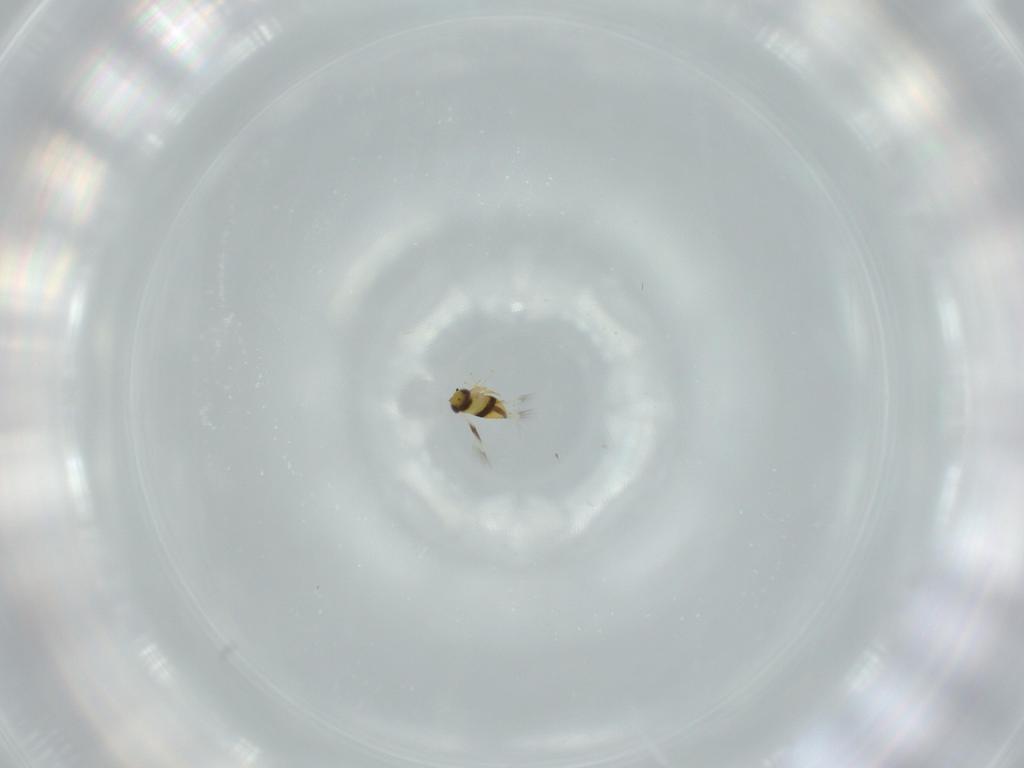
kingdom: Animalia
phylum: Arthropoda
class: Insecta
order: Hymenoptera
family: Signiphoridae
